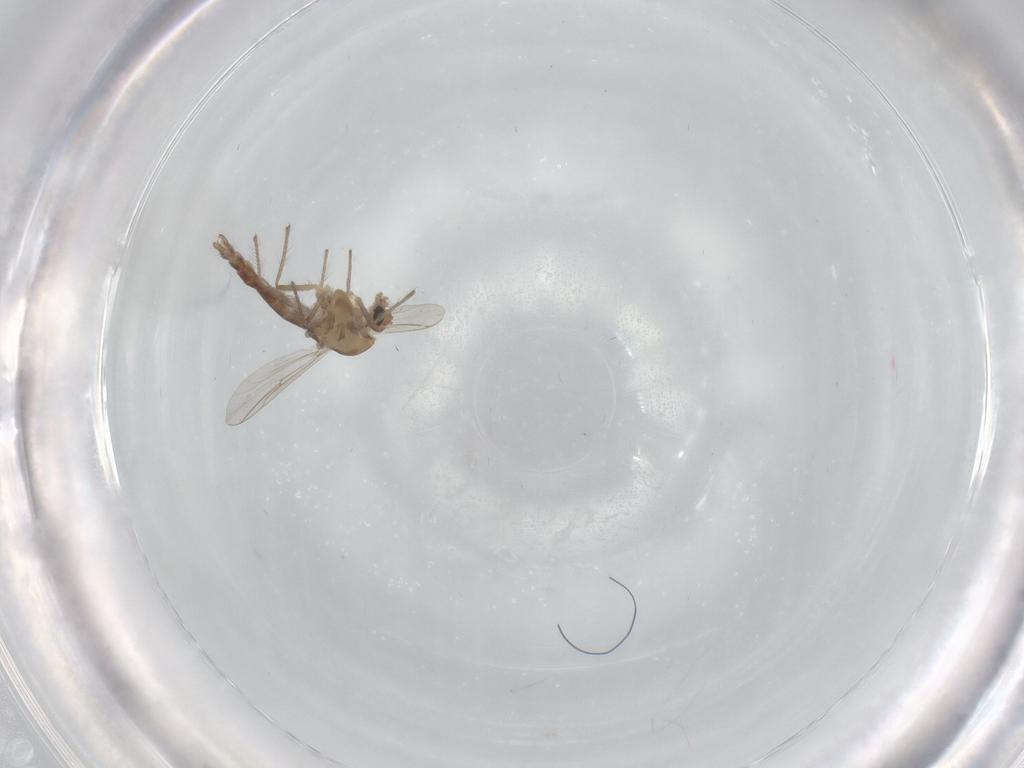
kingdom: Animalia
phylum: Arthropoda
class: Insecta
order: Diptera
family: Chironomidae
